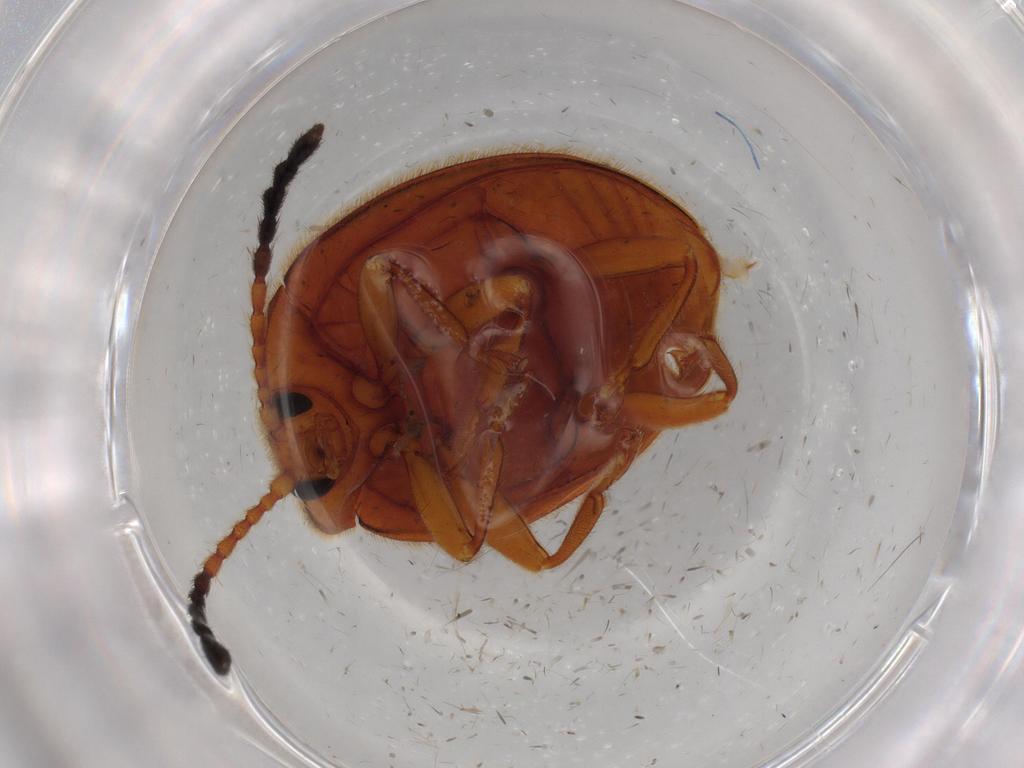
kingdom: Animalia
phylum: Arthropoda
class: Insecta
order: Coleoptera
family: Endomychidae
